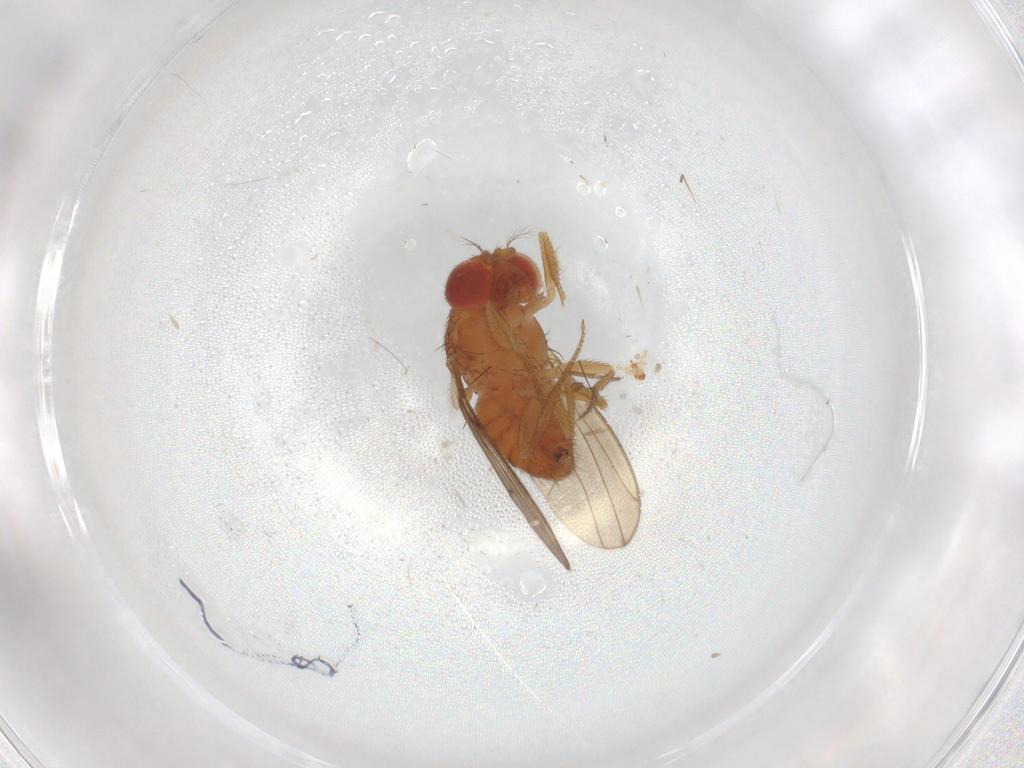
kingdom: Animalia
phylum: Arthropoda
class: Insecta
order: Diptera
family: Drosophilidae
